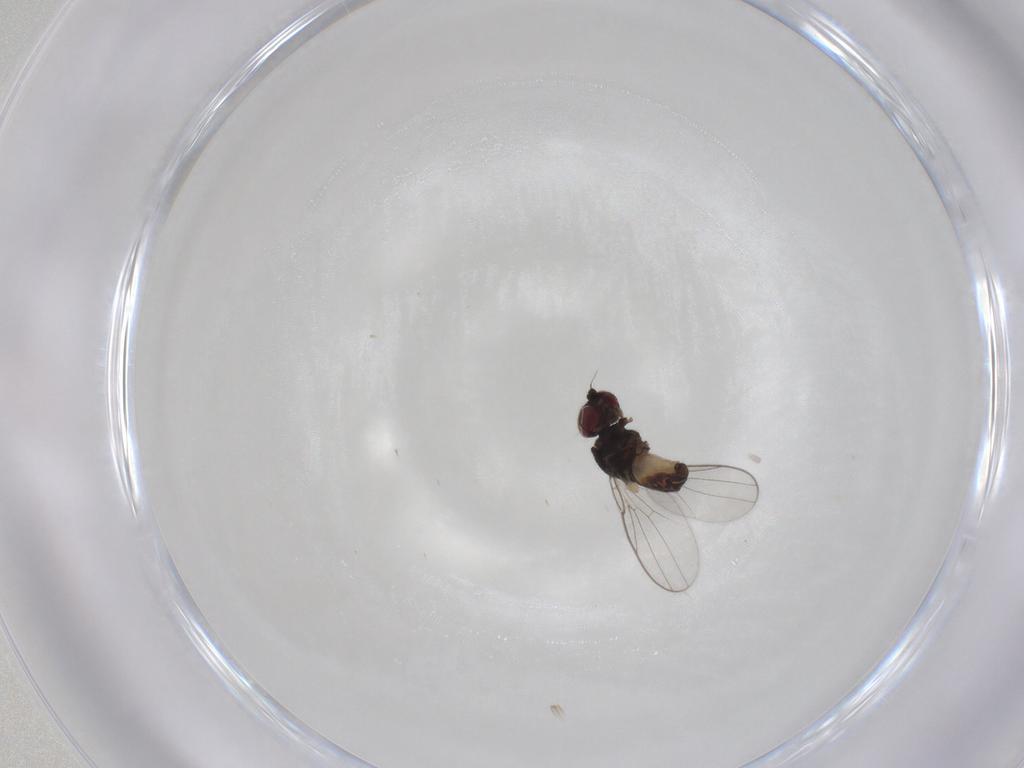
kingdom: Animalia
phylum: Arthropoda
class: Insecta
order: Diptera
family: Chloropidae
